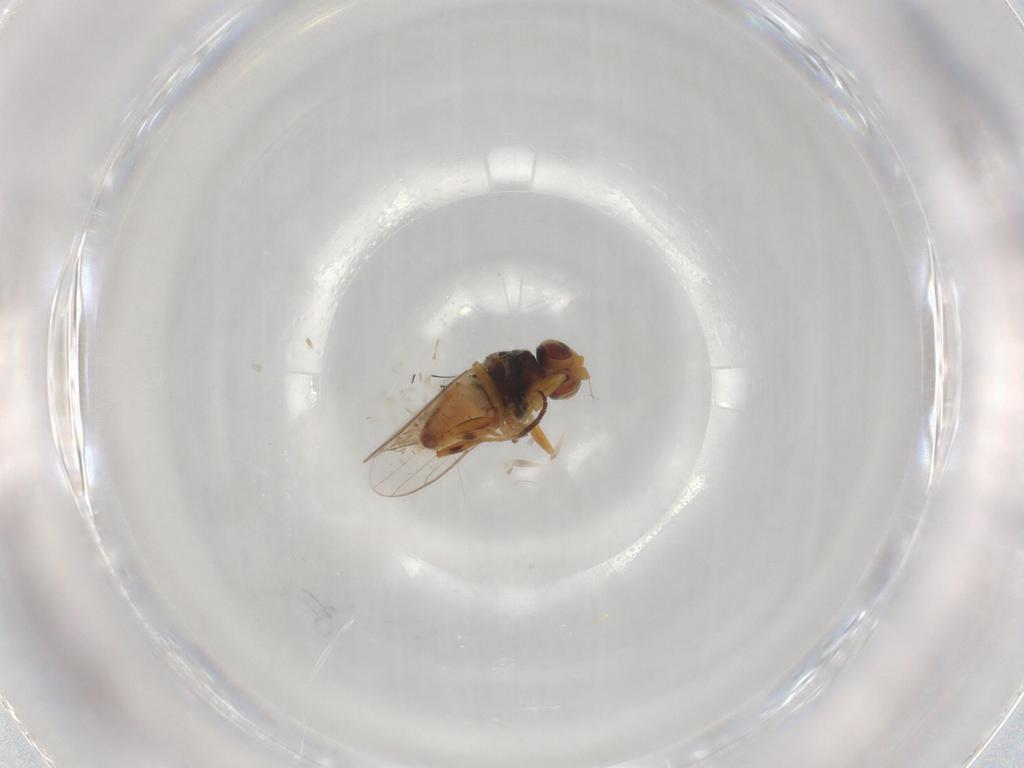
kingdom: Animalia
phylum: Arthropoda
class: Insecta
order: Diptera
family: Chloropidae
